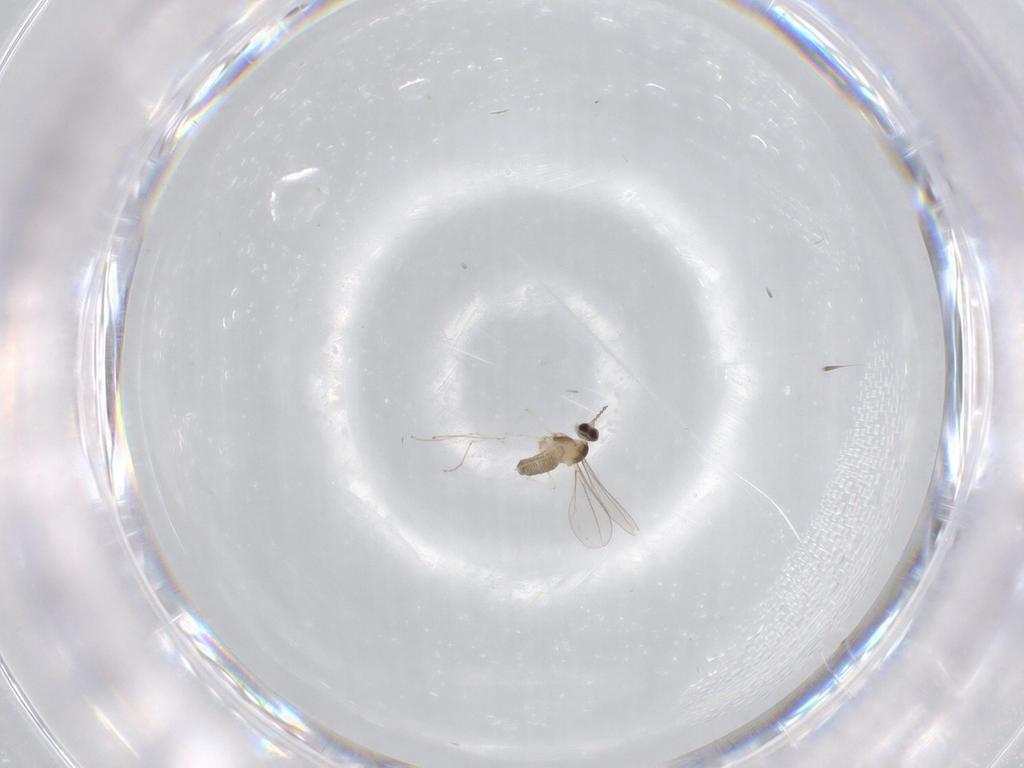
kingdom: Animalia
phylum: Arthropoda
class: Insecta
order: Diptera
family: Cecidomyiidae
